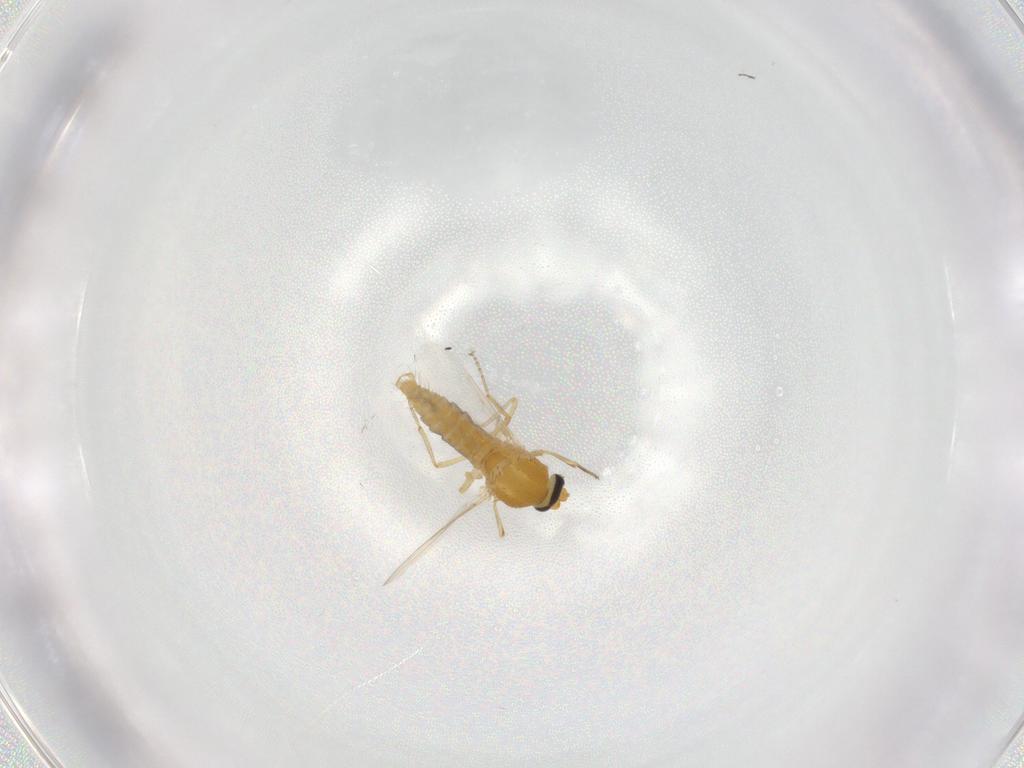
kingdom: Animalia
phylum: Arthropoda
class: Insecta
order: Diptera
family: Ceratopogonidae
